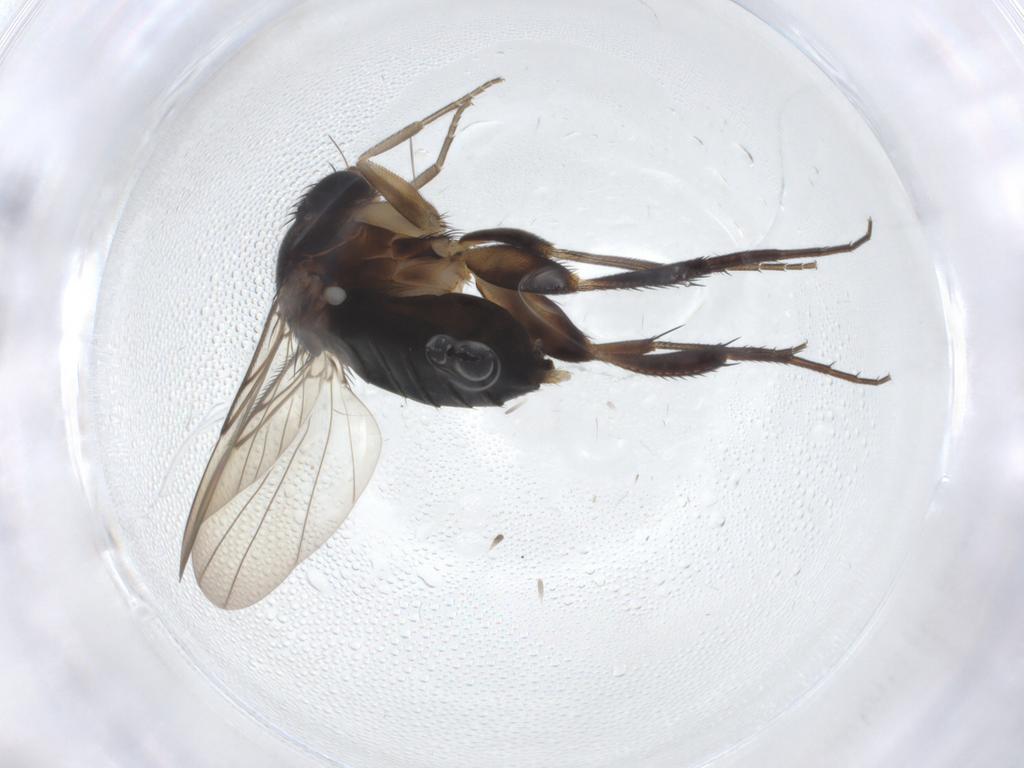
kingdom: Animalia
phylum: Arthropoda
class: Insecta
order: Diptera
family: Phoridae
